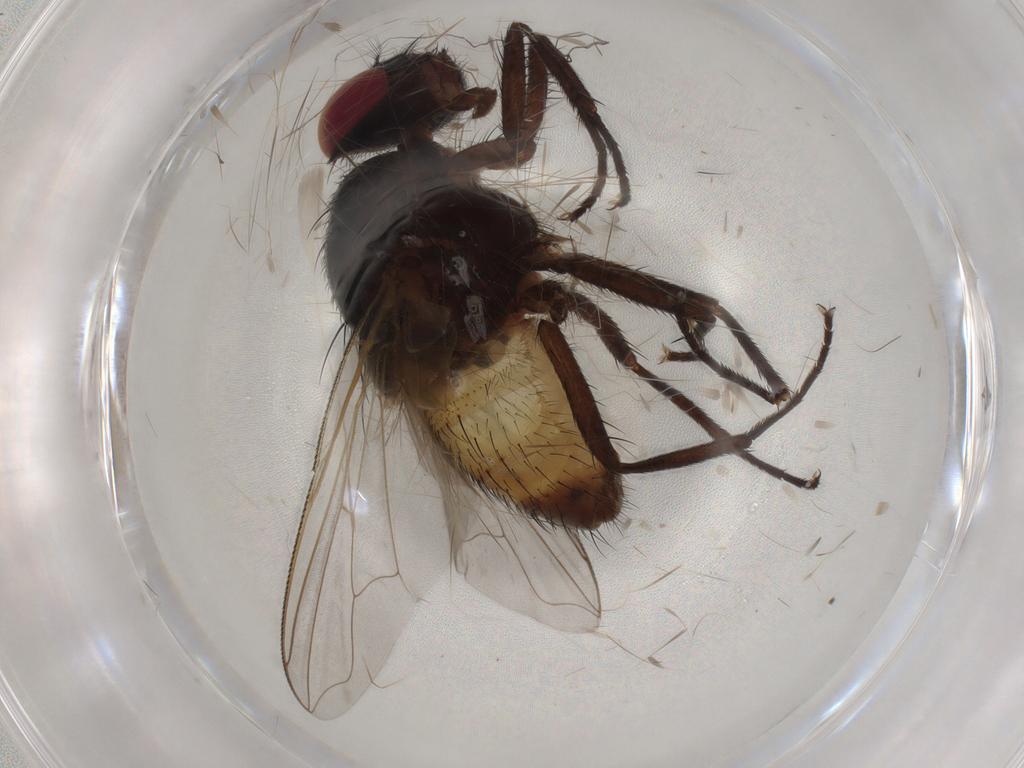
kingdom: Animalia
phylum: Arthropoda
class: Insecta
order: Diptera
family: Muscidae
